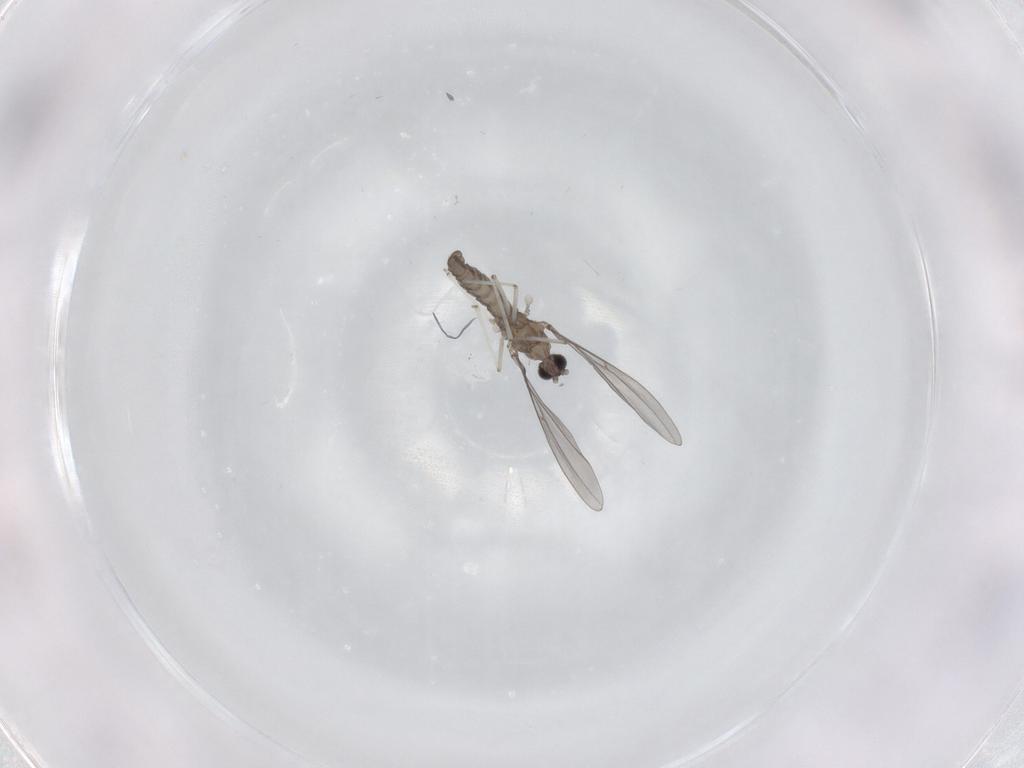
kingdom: Animalia
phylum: Arthropoda
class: Insecta
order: Diptera
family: Cecidomyiidae
